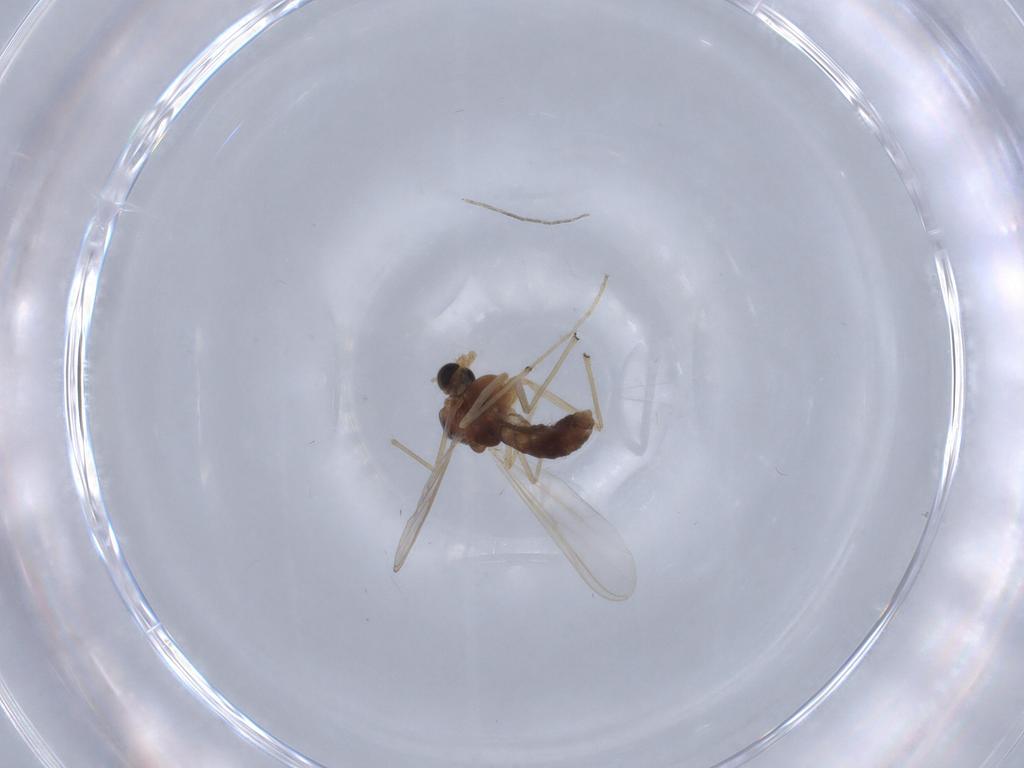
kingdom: Animalia
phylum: Arthropoda
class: Insecta
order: Diptera
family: Chironomidae
